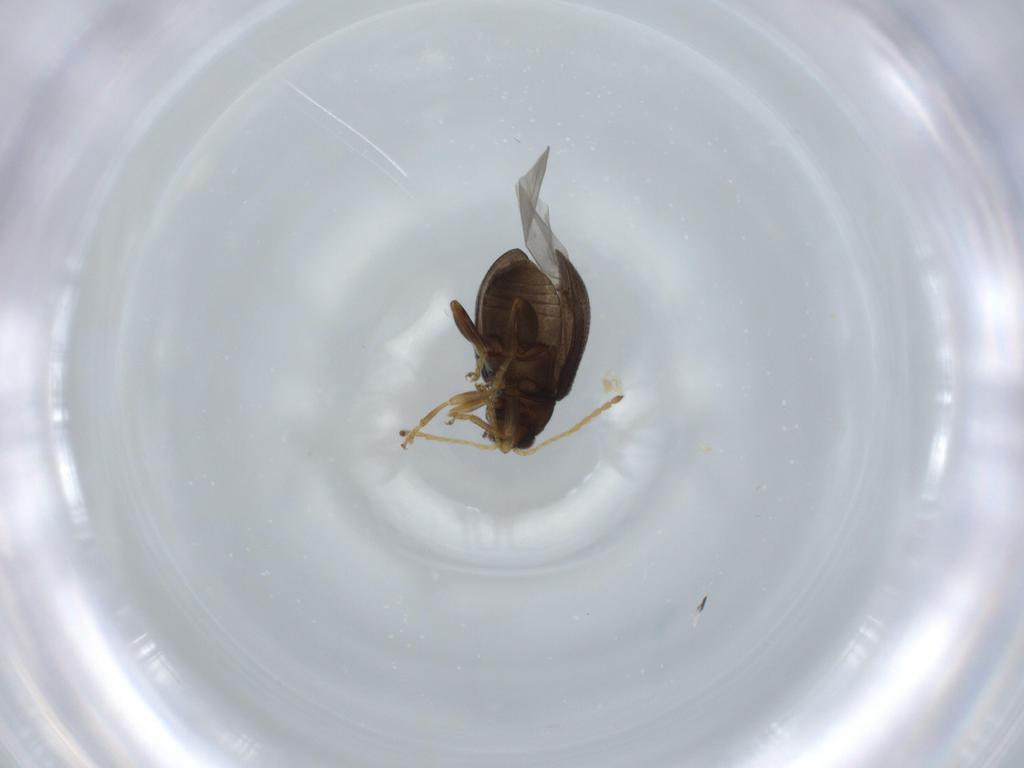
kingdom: Animalia
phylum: Arthropoda
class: Insecta
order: Coleoptera
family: Chrysomelidae
